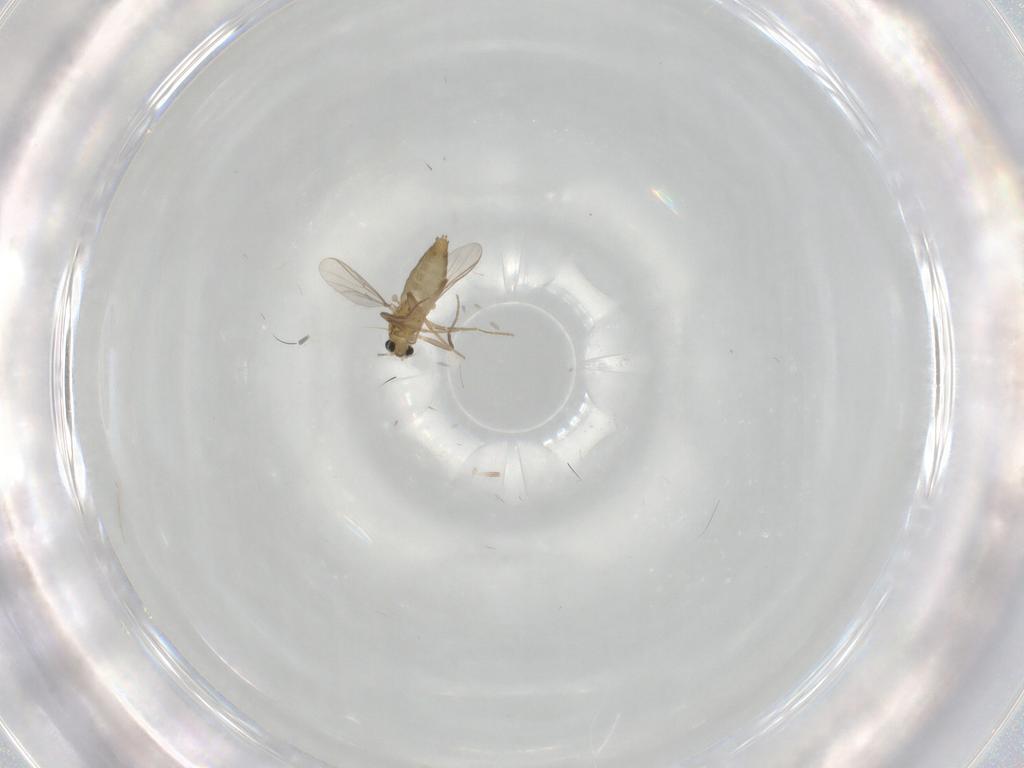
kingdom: Animalia
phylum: Arthropoda
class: Insecta
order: Diptera
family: Chironomidae
